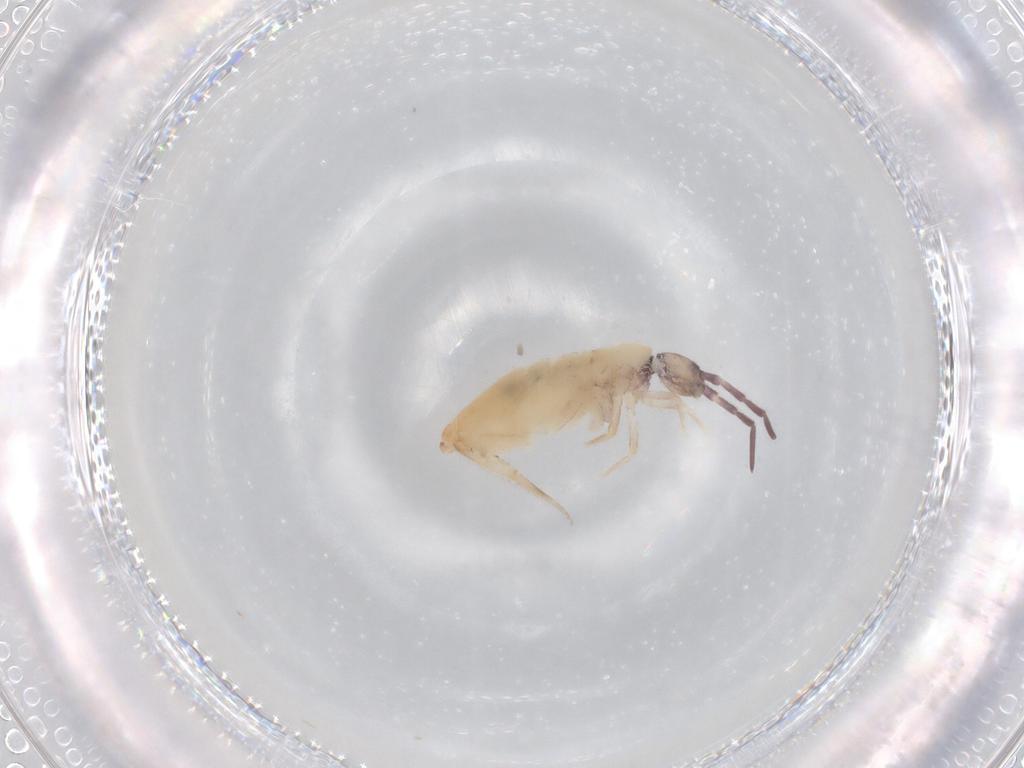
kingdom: Animalia
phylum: Arthropoda
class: Collembola
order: Entomobryomorpha
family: Entomobryidae
